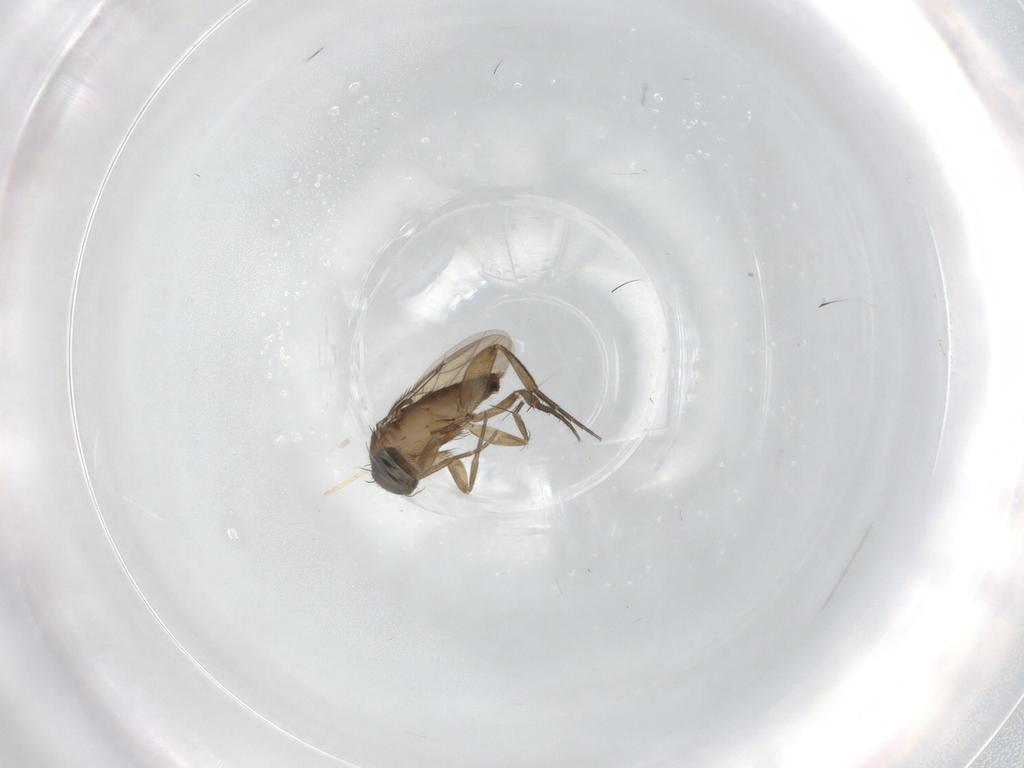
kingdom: Animalia
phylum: Arthropoda
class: Insecta
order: Diptera
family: Phoridae
